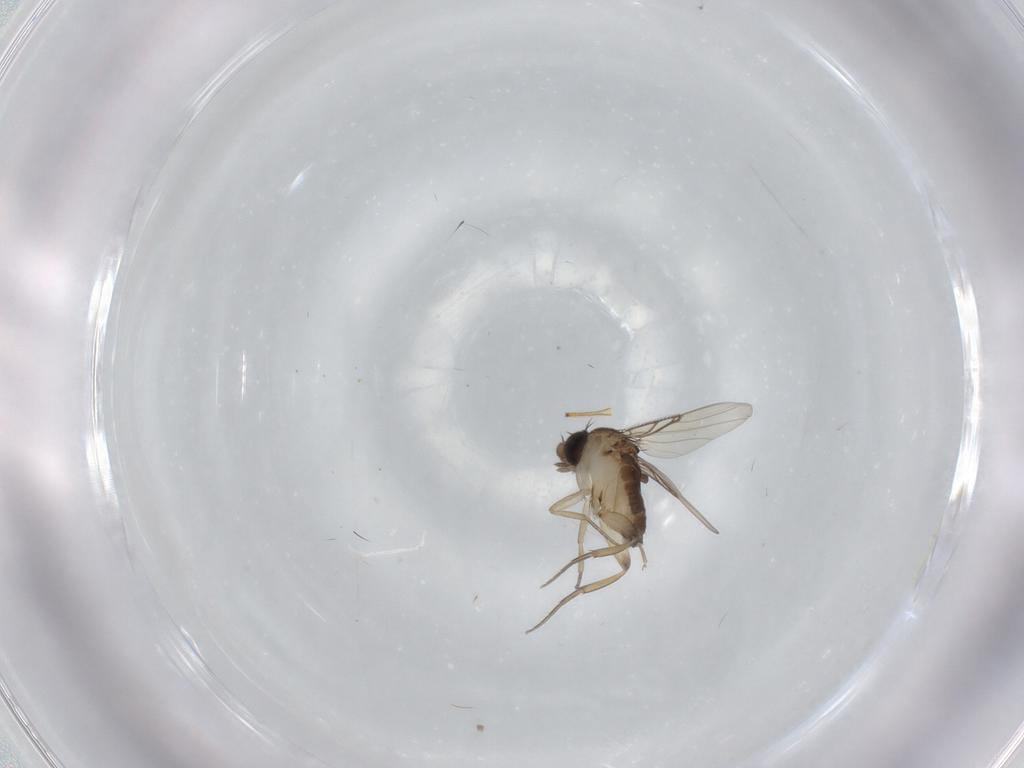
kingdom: Animalia
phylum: Arthropoda
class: Insecta
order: Diptera
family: Phoridae
